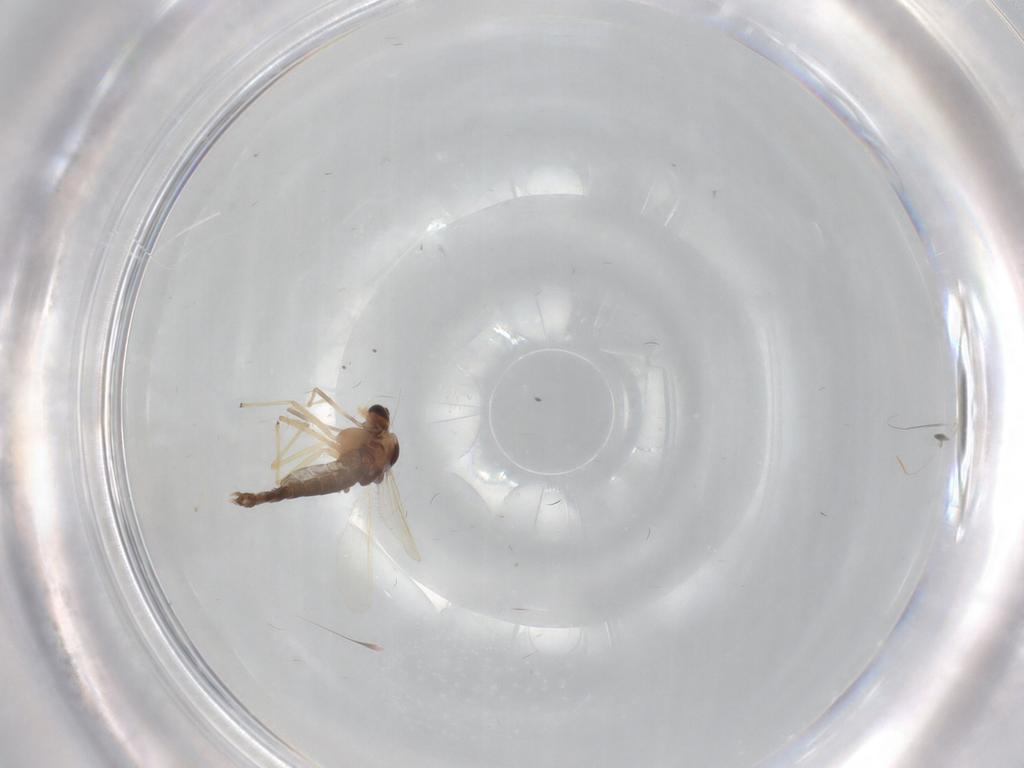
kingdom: Animalia
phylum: Arthropoda
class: Insecta
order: Diptera
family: Chironomidae
